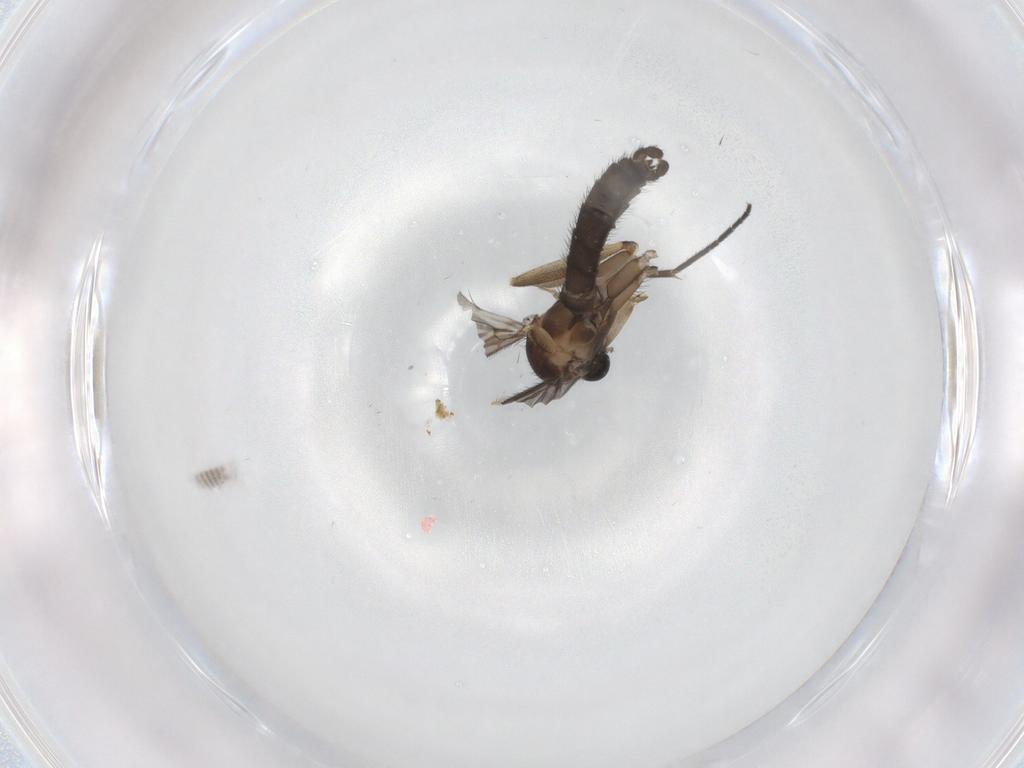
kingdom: Animalia
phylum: Arthropoda
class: Insecta
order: Diptera
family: Sciaridae
